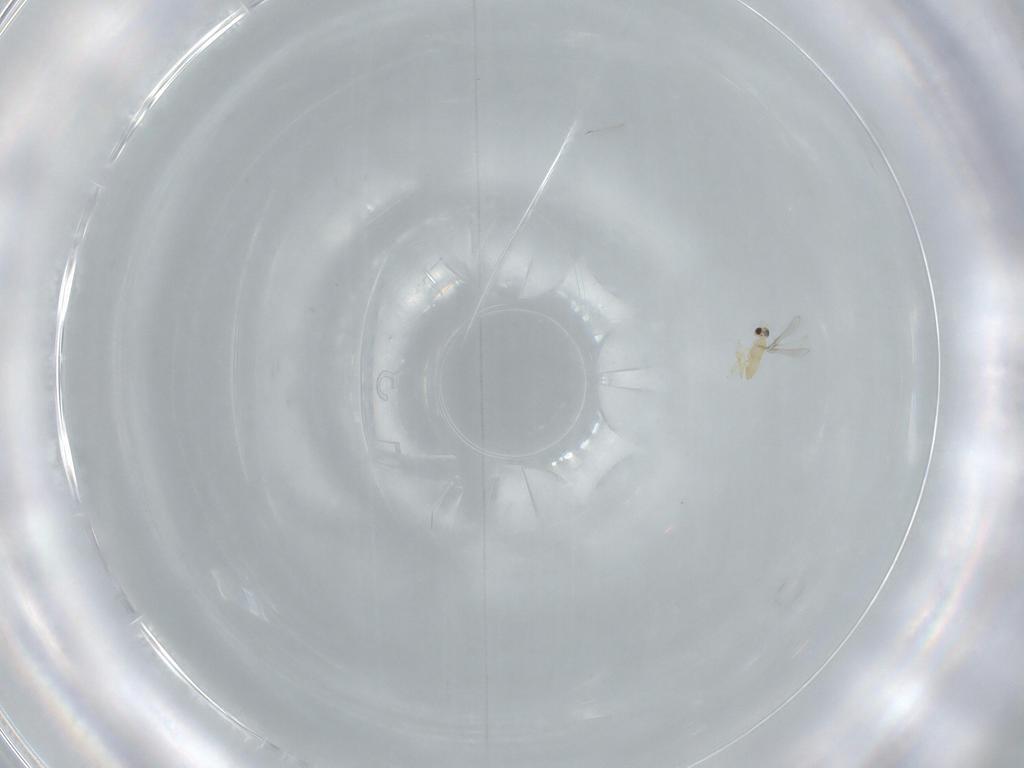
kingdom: Animalia
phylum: Arthropoda
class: Insecta
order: Hymenoptera
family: Mymaridae
